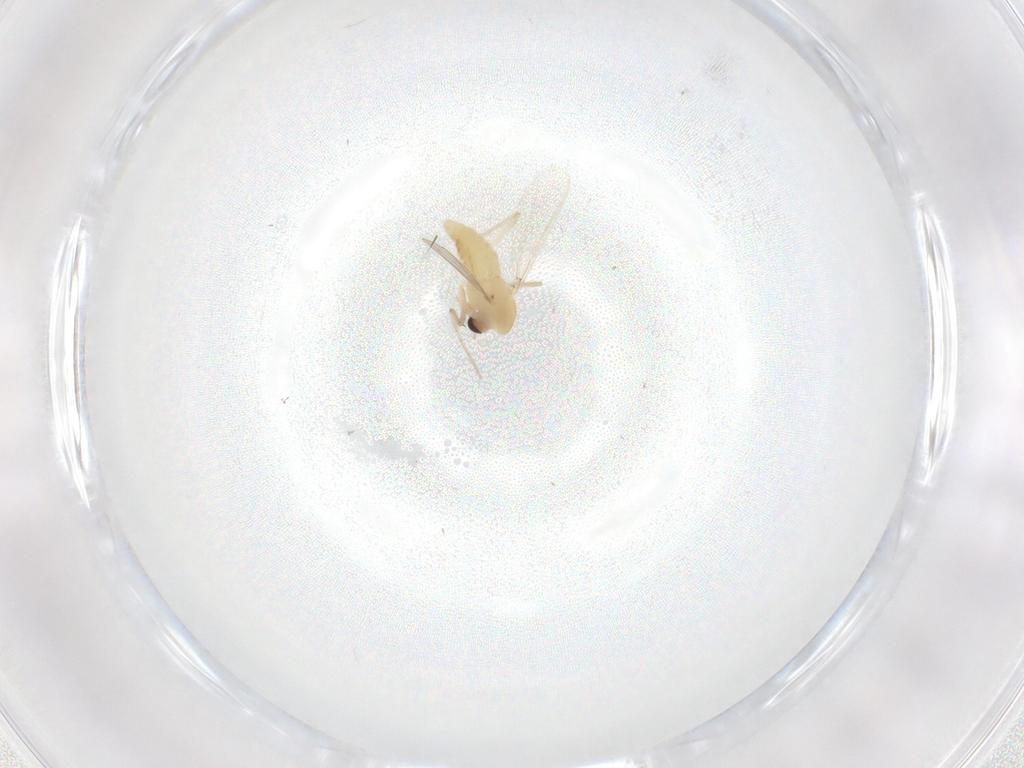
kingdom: Animalia
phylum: Arthropoda
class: Insecta
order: Diptera
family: Chironomidae
